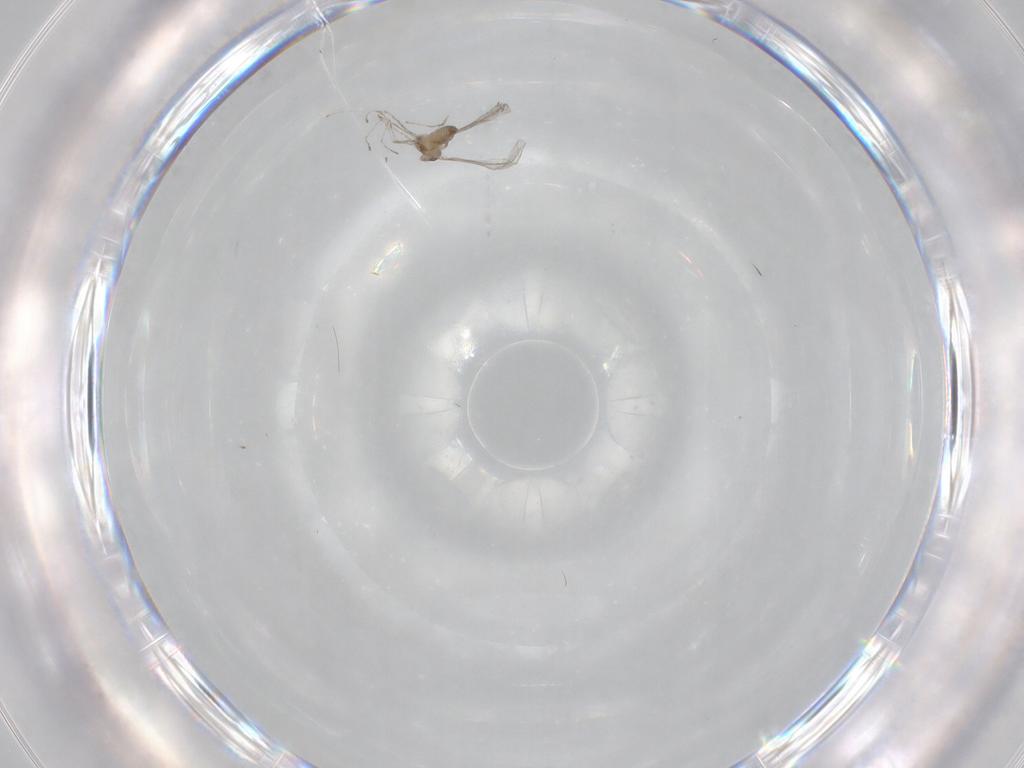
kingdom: Animalia
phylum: Arthropoda
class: Insecta
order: Diptera
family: Cecidomyiidae
